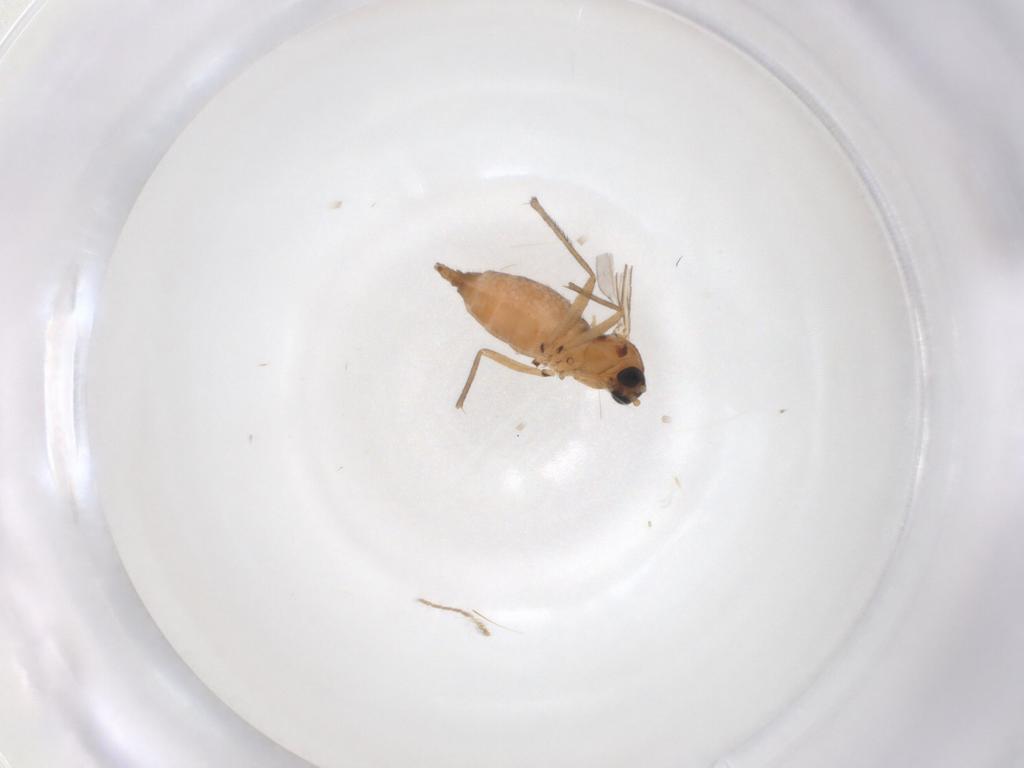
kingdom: Animalia
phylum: Arthropoda
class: Insecta
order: Diptera
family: Sciaridae
